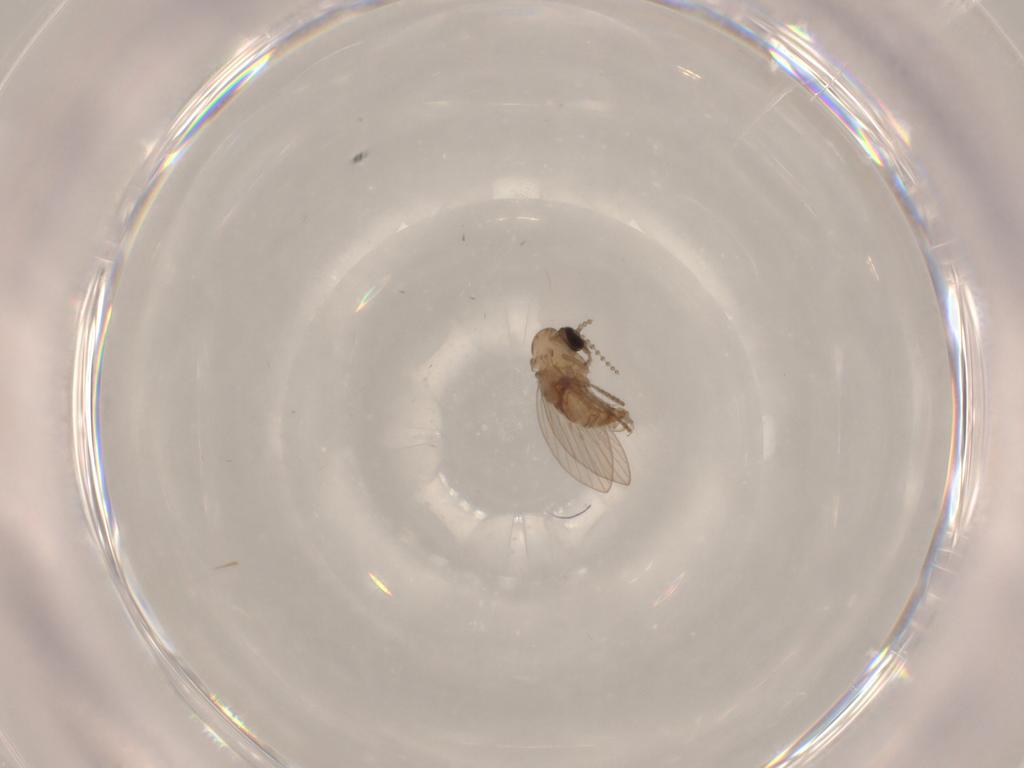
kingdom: Animalia
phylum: Arthropoda
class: Insecta
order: Diptera
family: Psychodidae
